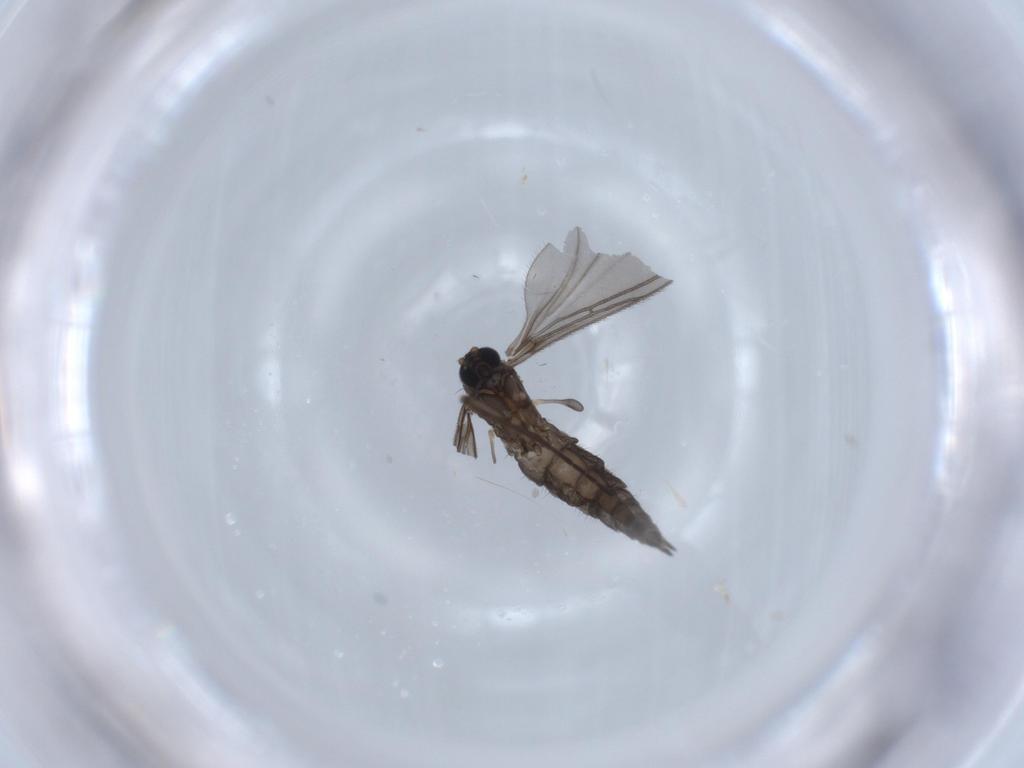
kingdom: Animalia
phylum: Arthropoda
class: Insecta
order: Diptera
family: Sciaridae
